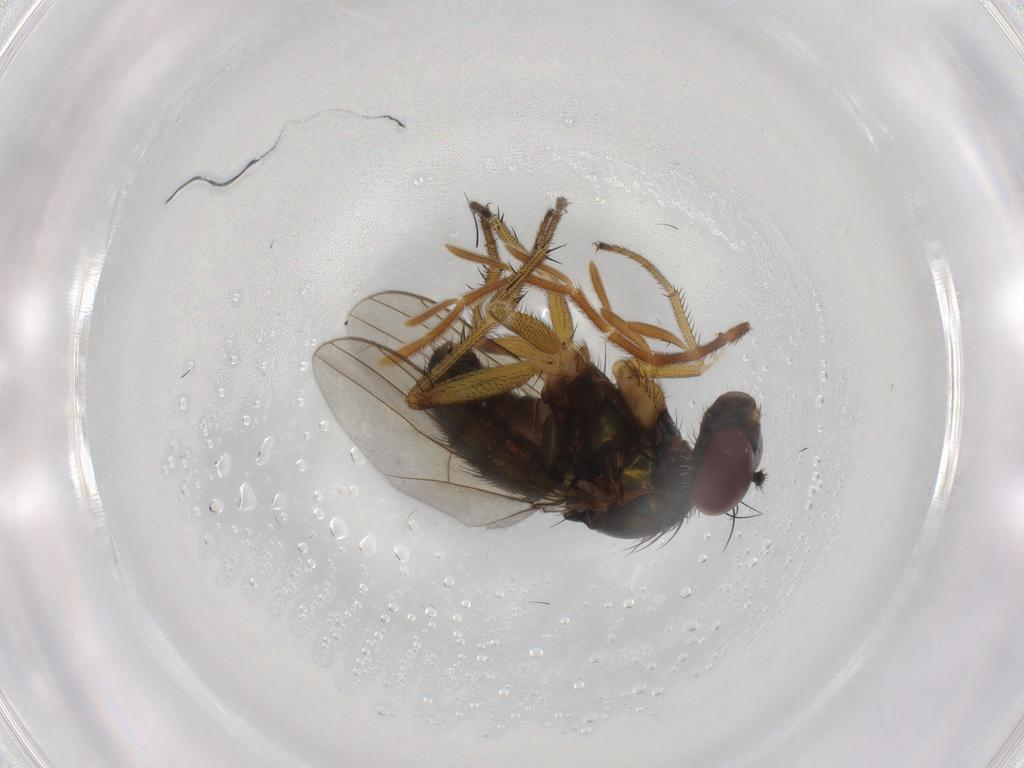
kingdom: Animalia
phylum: Arthropoda
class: Insecta
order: Diptera
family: Dolichopodidae
